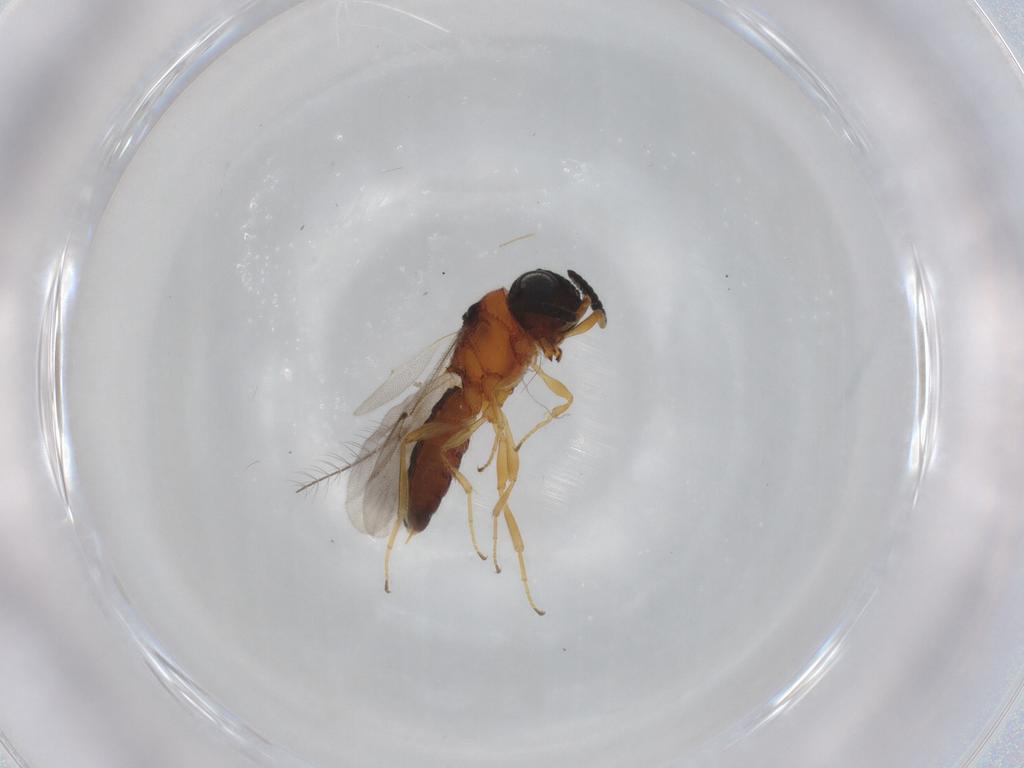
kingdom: Animalia
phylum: Arthropoda
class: Insecta
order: Hymenoptera
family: Scelionidae
